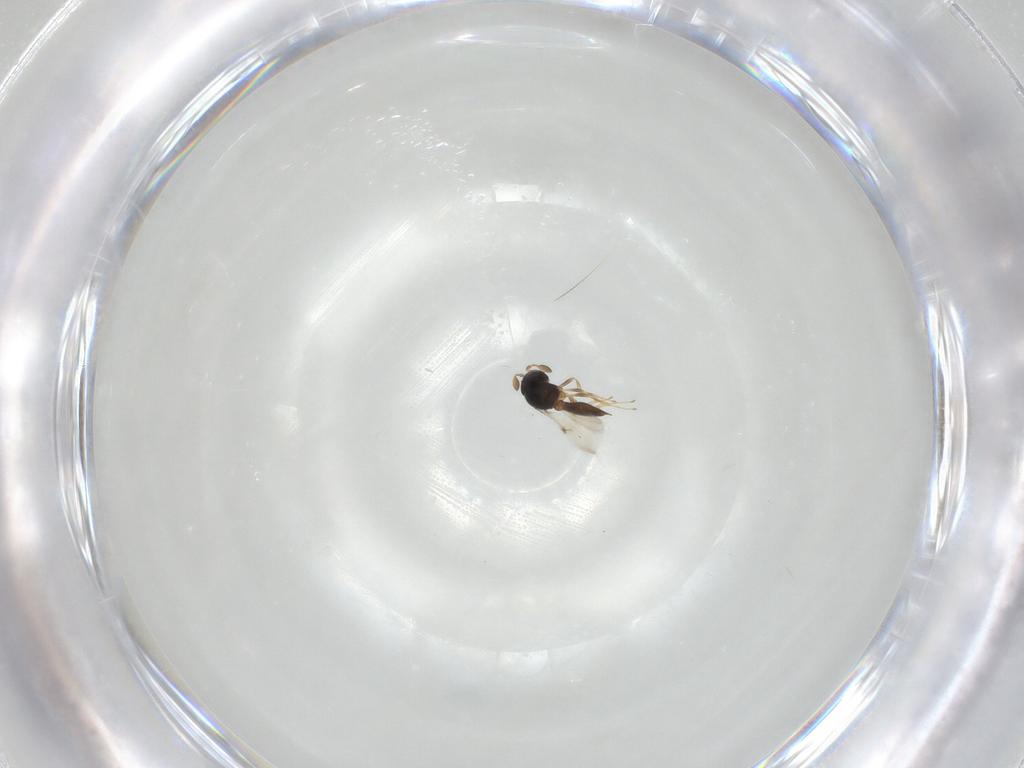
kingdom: Animalia
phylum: Arthropoda
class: Insecta
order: Hymenoptera
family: Scelionidae
